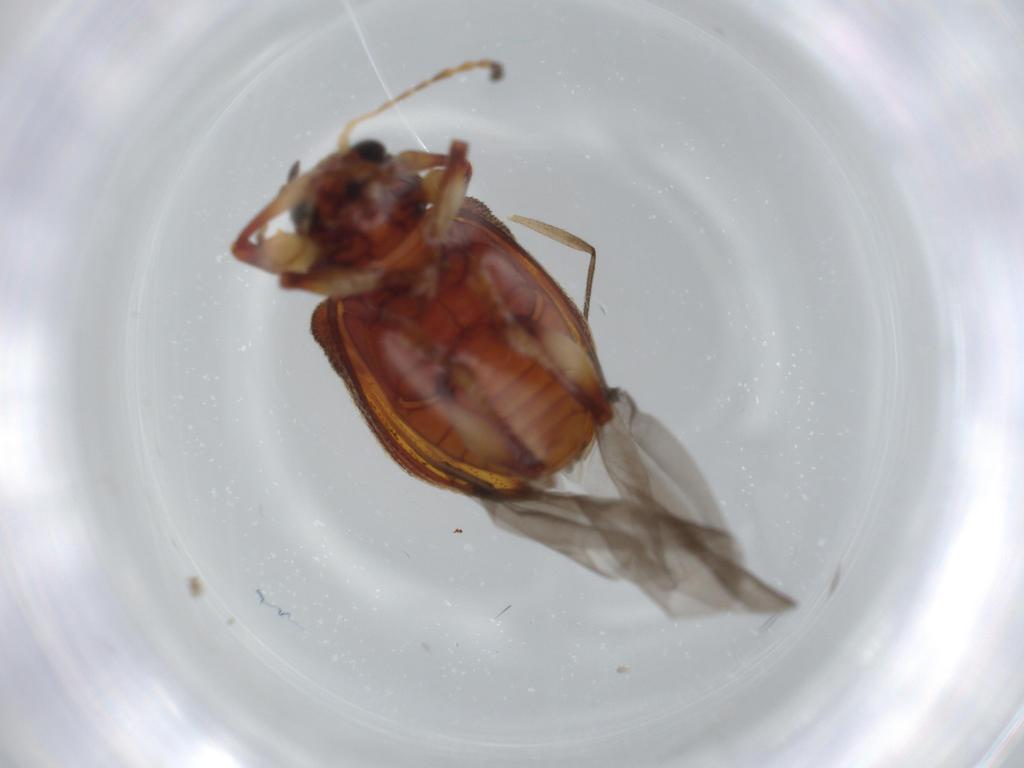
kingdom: Animalia
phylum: Arthropoda
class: Insecta
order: Coleoptera
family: Chrysomelidae
